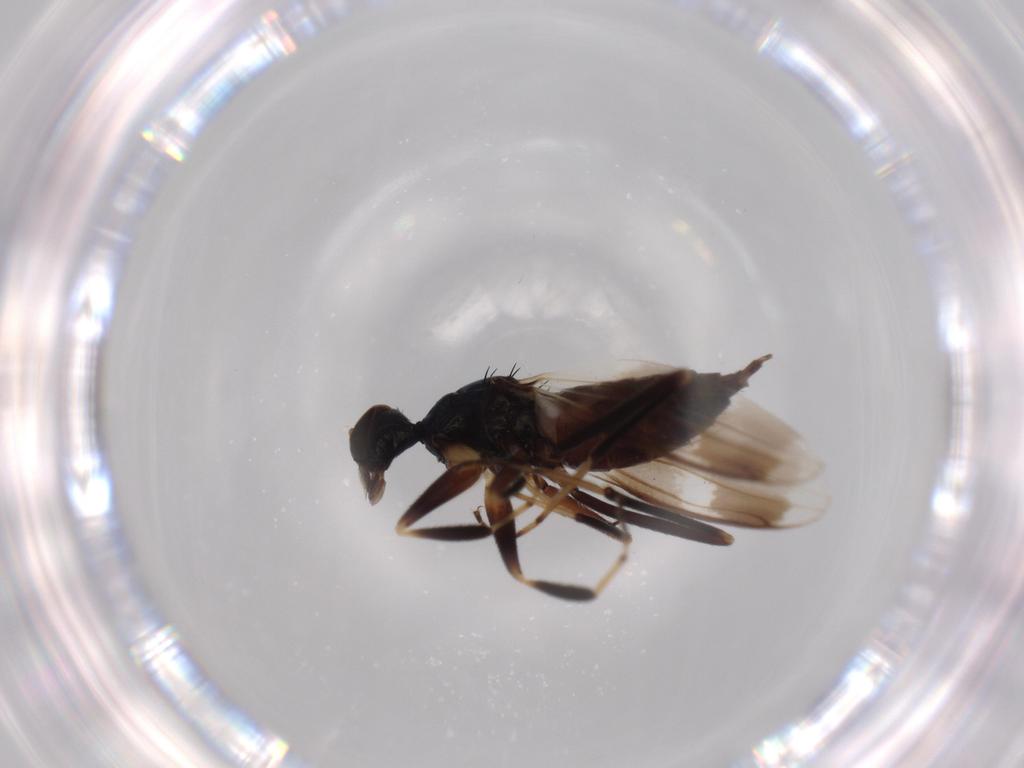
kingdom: Animalia
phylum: Arthropoda
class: Insecta
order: Diptera
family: Hybotidae
